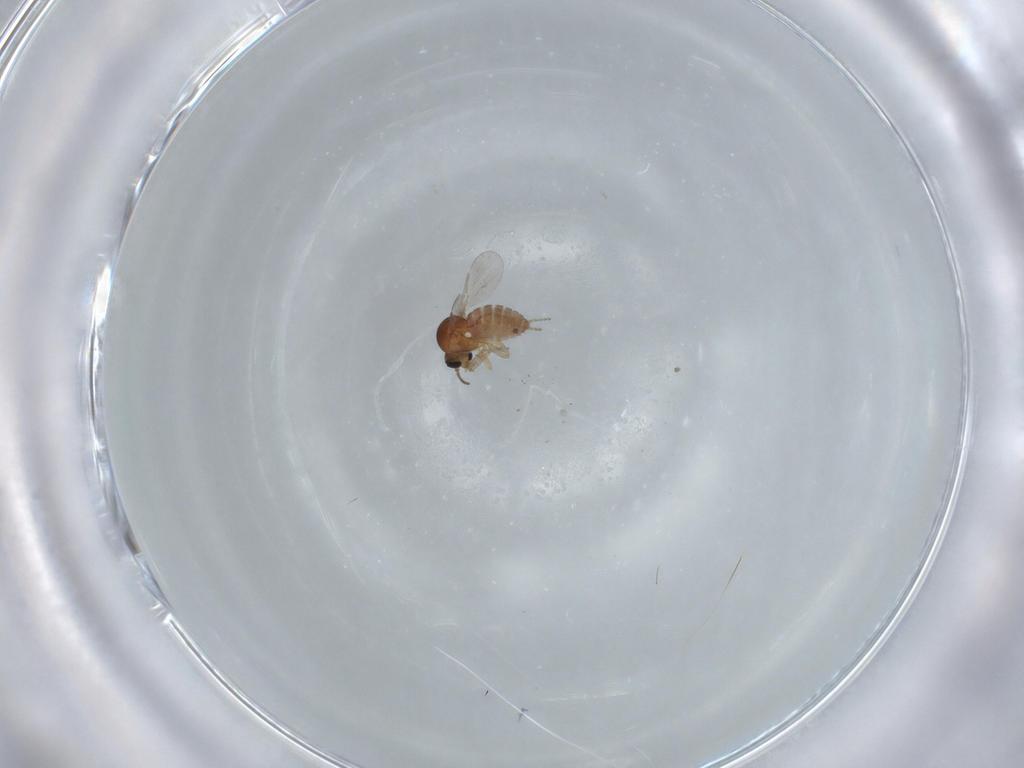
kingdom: Animalia
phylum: Arthropoda
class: Insecta
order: Diptera
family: Ceratopogonidae
